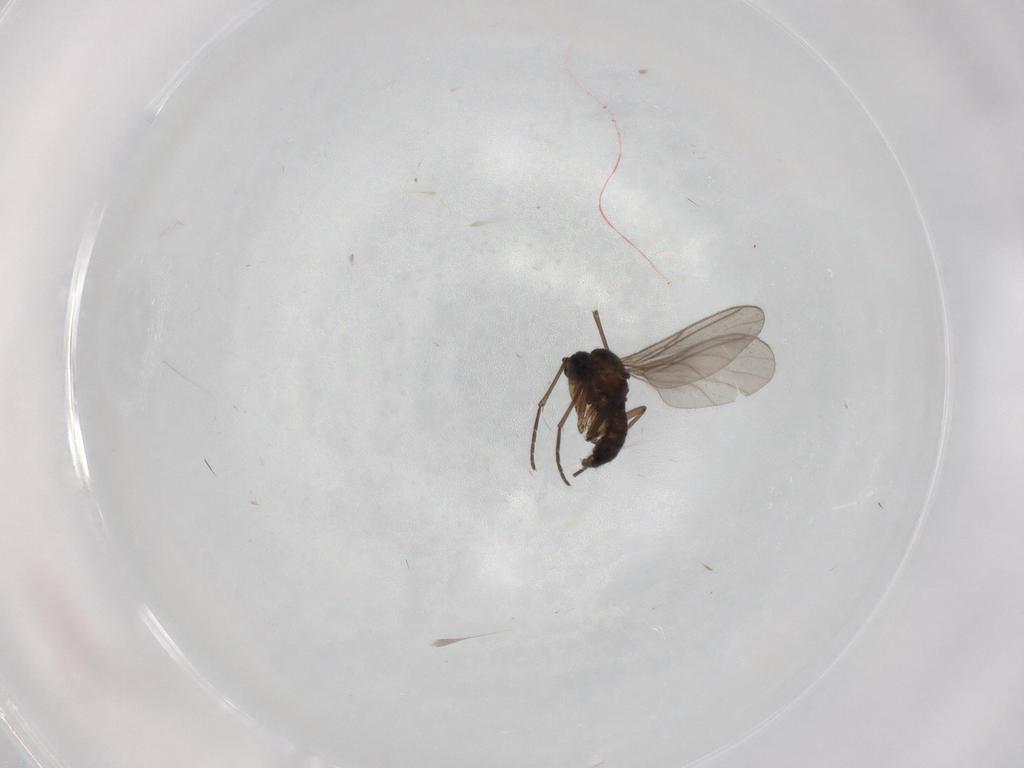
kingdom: Animalia
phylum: Arthropoda
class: Insecta
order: Diptera
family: Sciaridae
